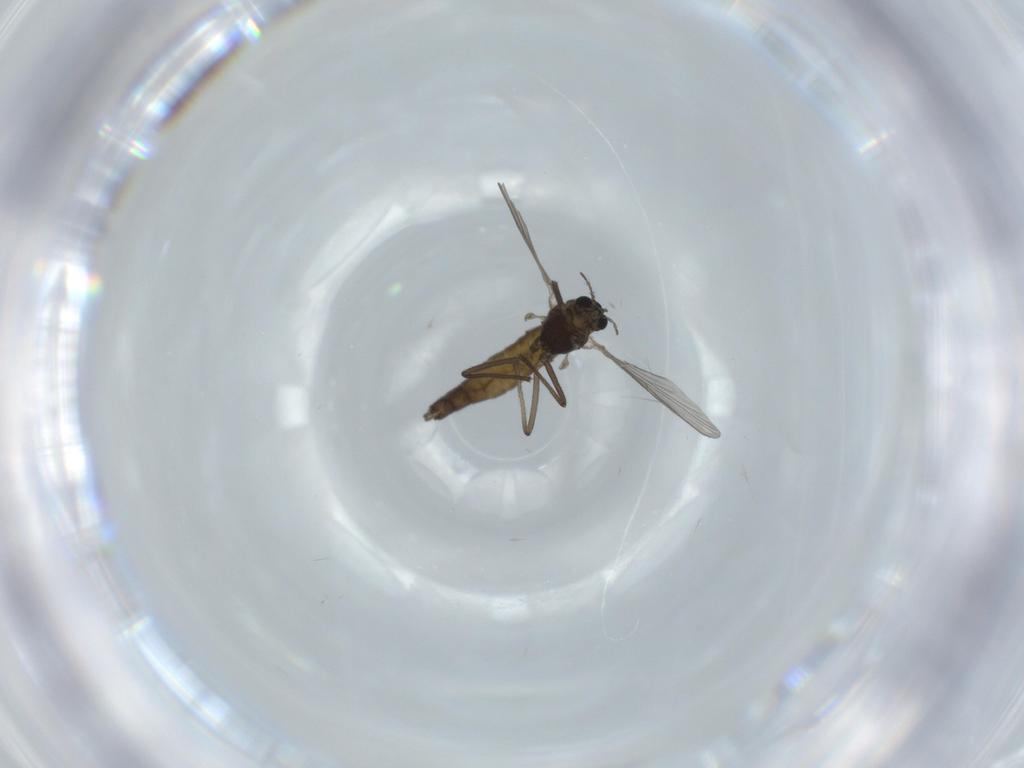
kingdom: Animalia
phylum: Arthropoda
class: Insecta
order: Diptera
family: Chironomidae
